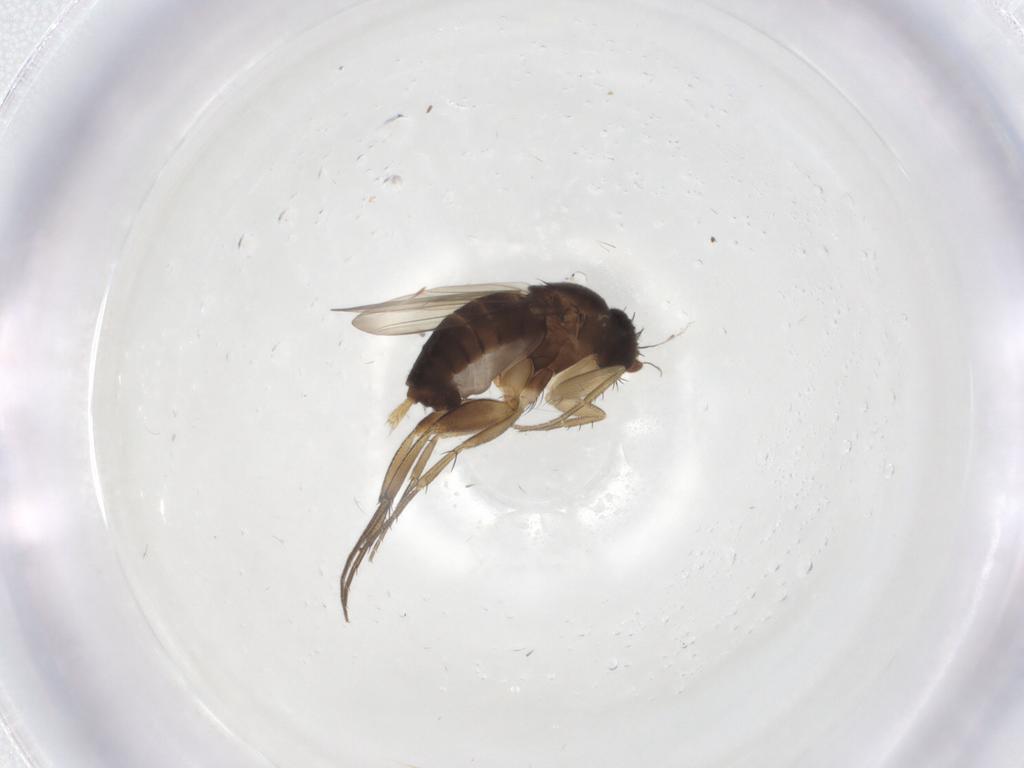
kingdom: Animalia
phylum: Arthropoda
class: Insecta
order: Diptera
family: Phoridae
